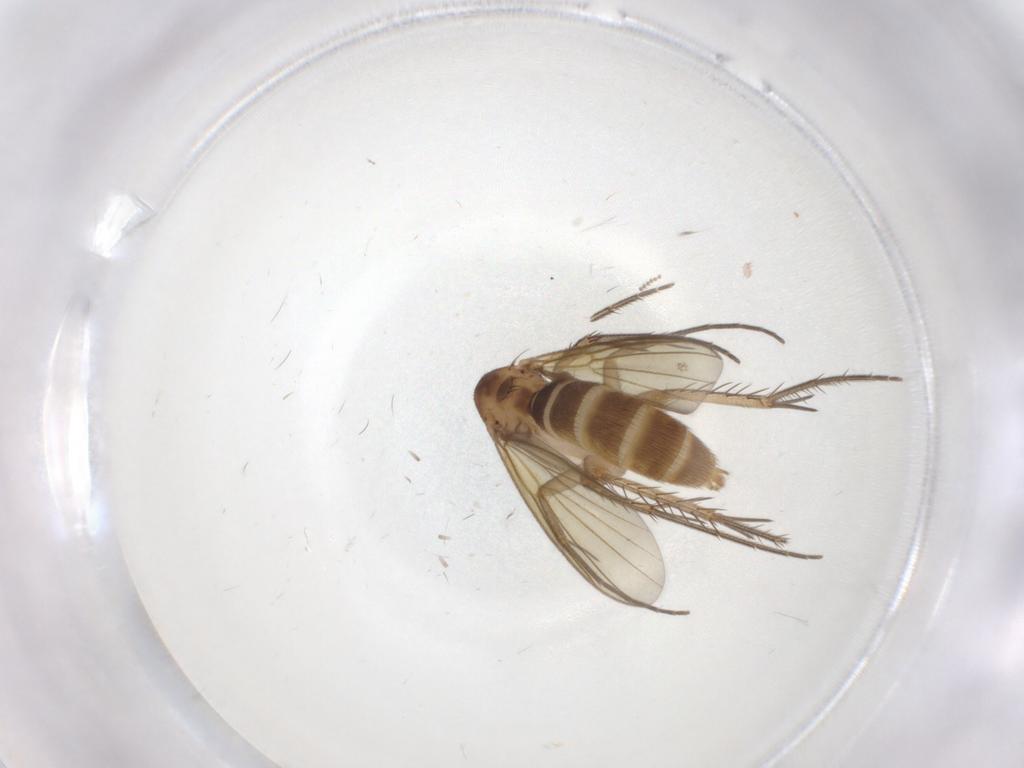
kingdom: Animalia
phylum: Arthropoda
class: Insecta
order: Diptera
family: Mycetophilidae
